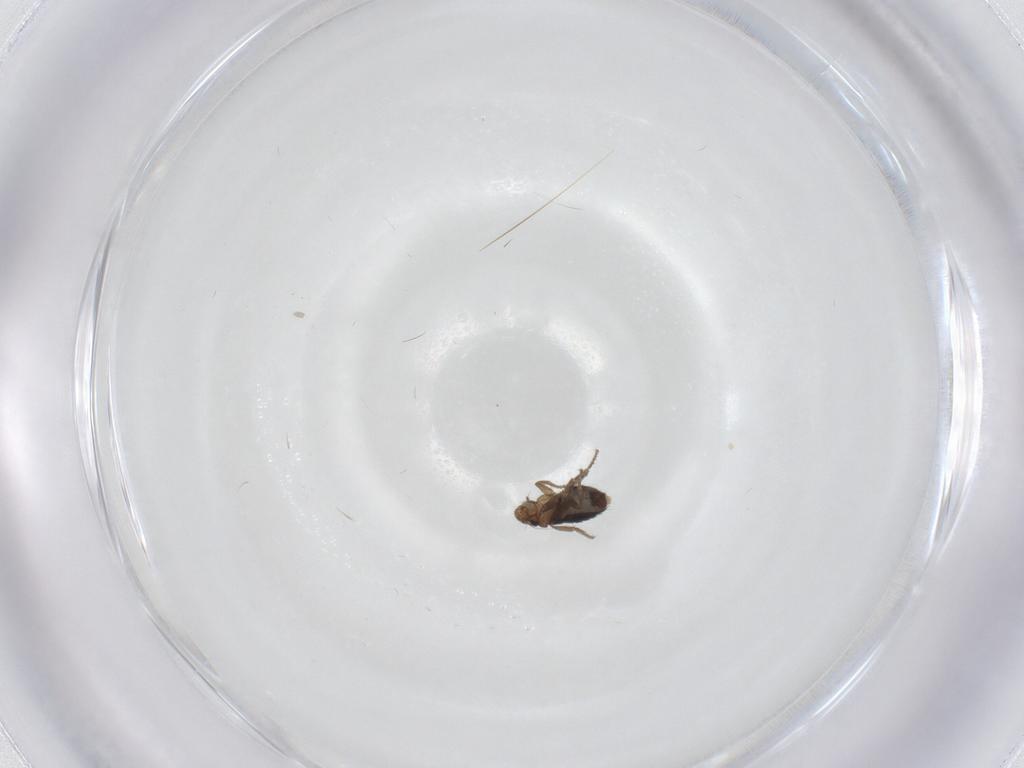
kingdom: Animalia
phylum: Arthropoda
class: Insecta
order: Diptera
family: Phoridae
